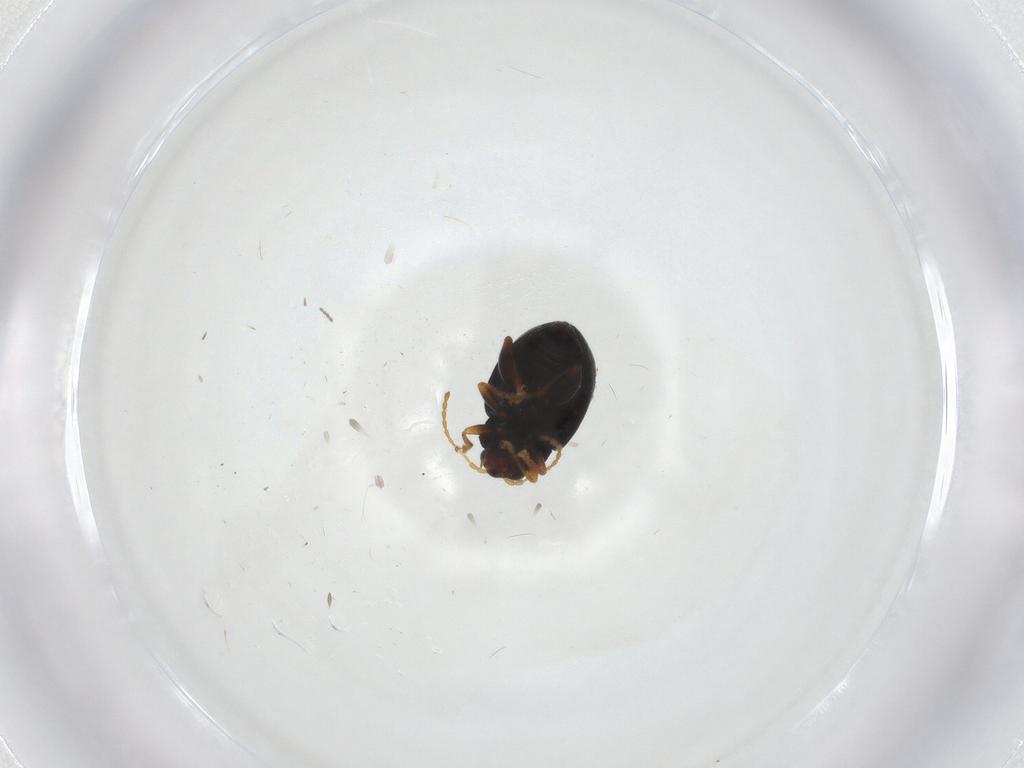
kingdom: Animalia
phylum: Arthropoda
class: Insecta
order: Coleoptera
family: Chrysomelidae
